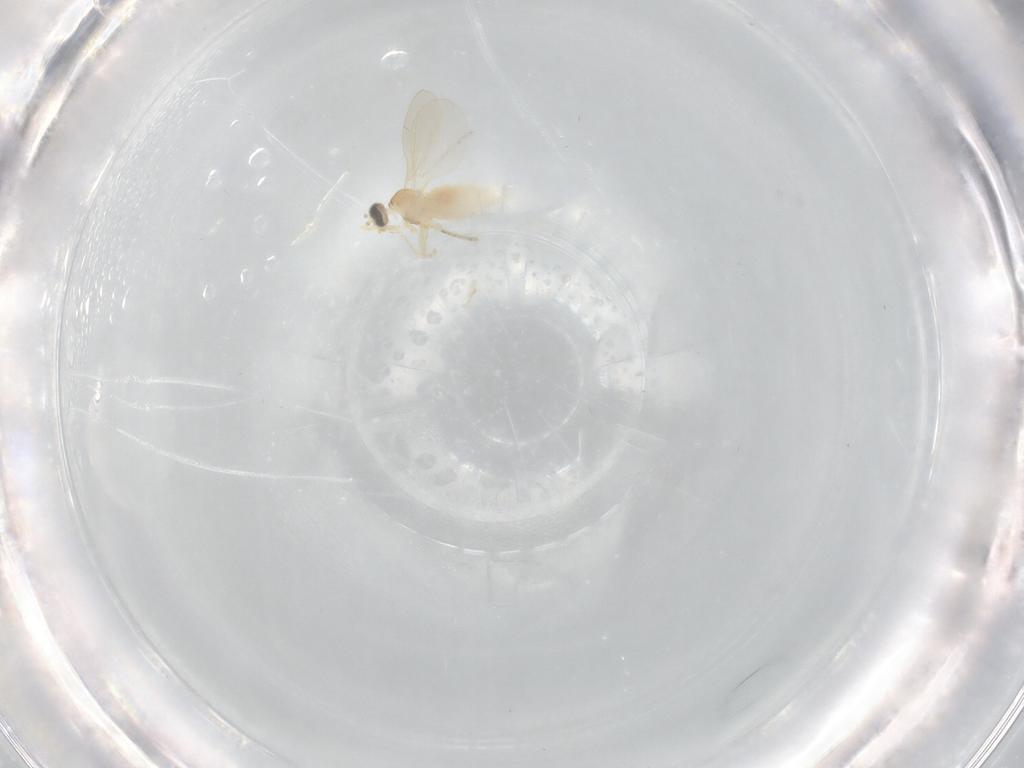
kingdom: Animalia
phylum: Arthropoda
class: Insecta
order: Diptera
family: Cecidomyiidae
